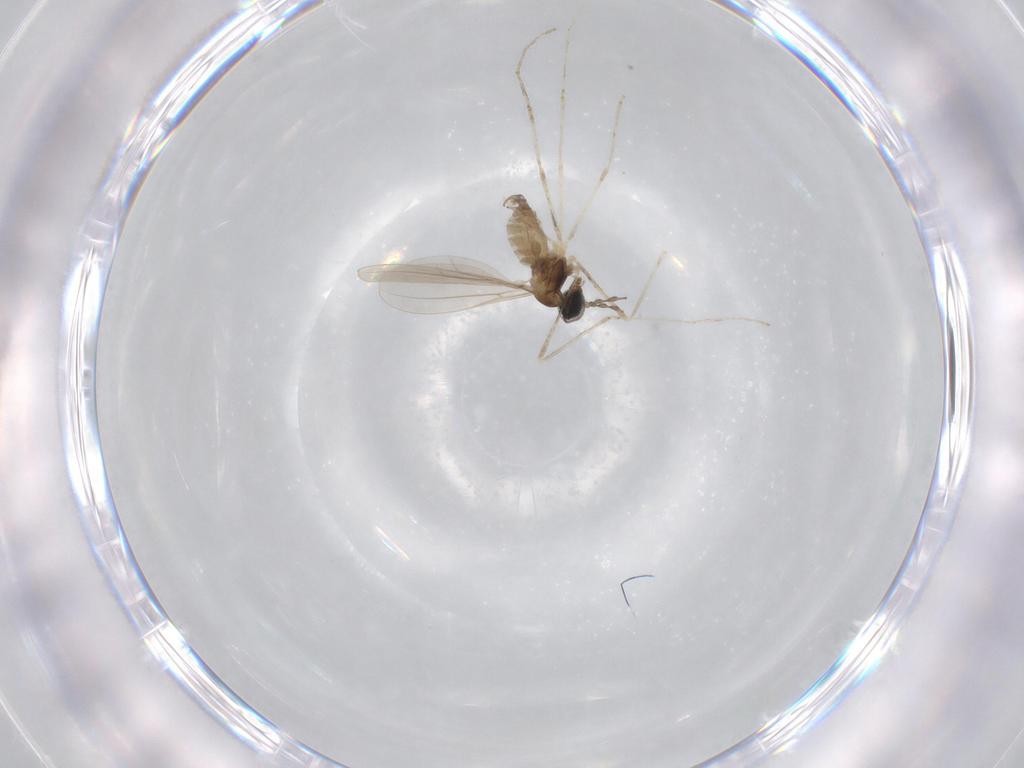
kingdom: Animalia
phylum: Arthropoda
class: Insecta
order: Diptera
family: Cecidomyiidae
